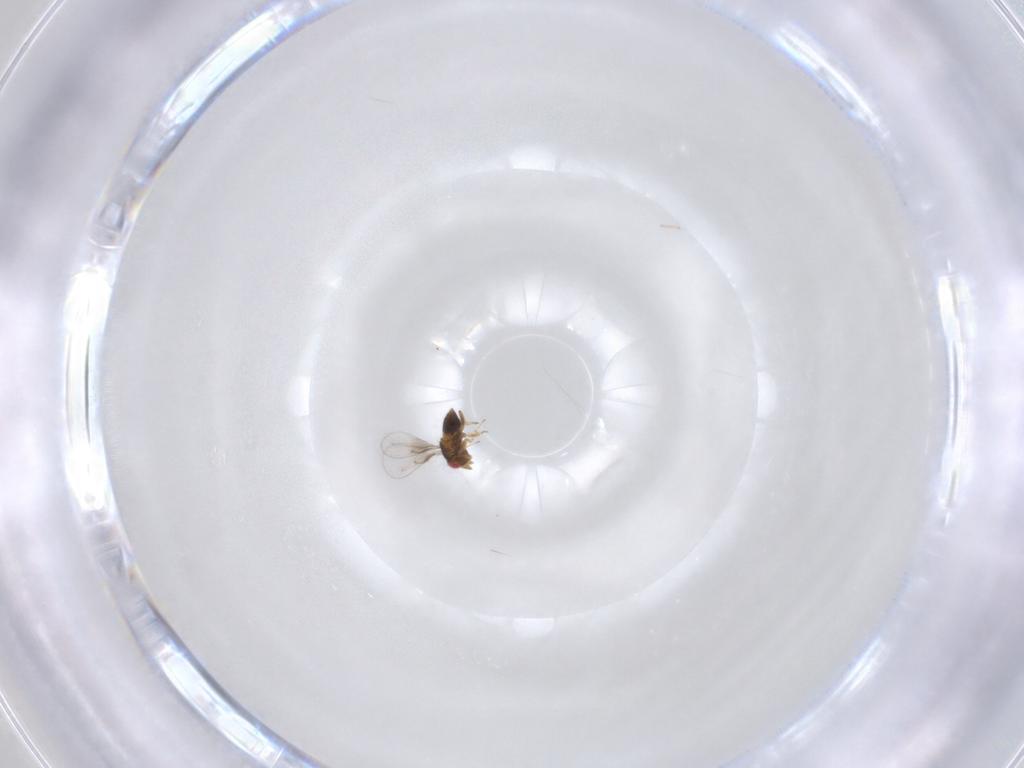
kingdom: Animalia
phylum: Arthropoda
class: Insecta
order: Hymenoptera
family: Trichogrammatidae
